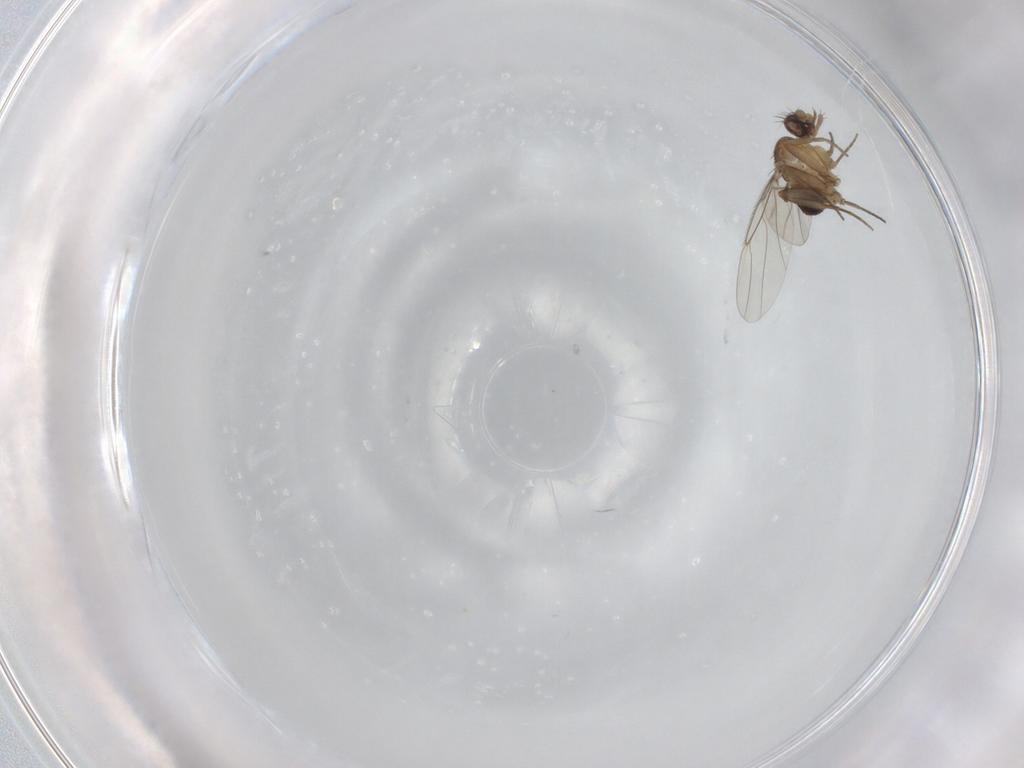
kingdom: Animalia
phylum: Arthropoda
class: Insecta
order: Diptera
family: Phoridae
